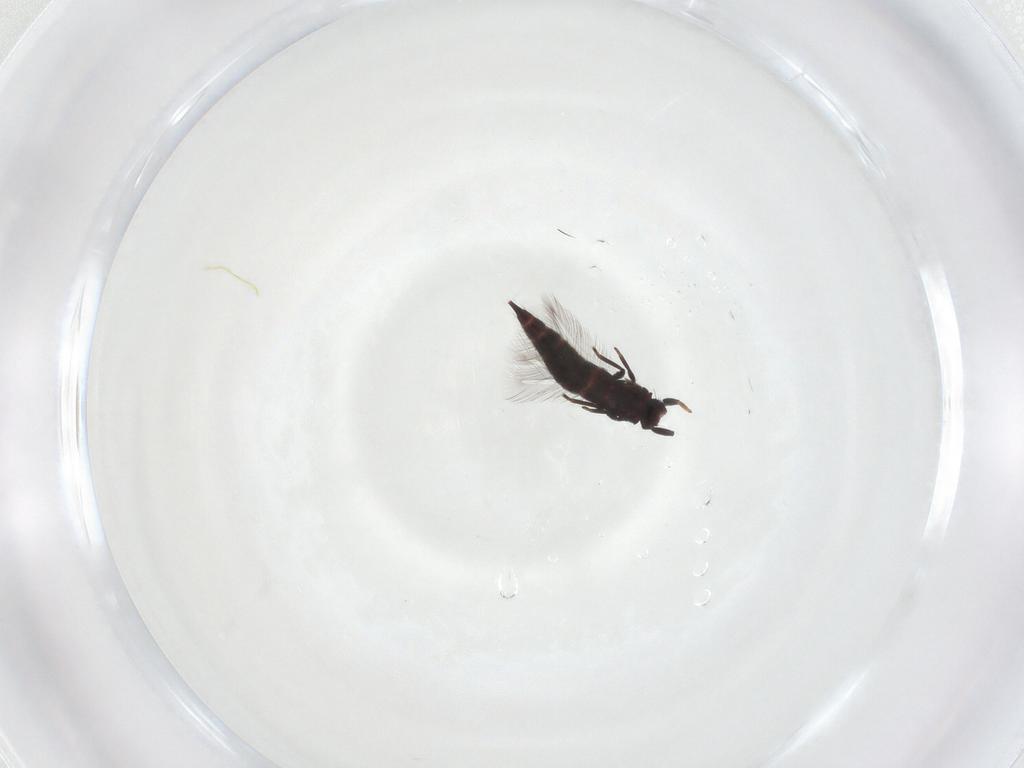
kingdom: Animalia
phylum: Arthropoda
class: Insecta
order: Thysanoptera
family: Phlaeothripidae
